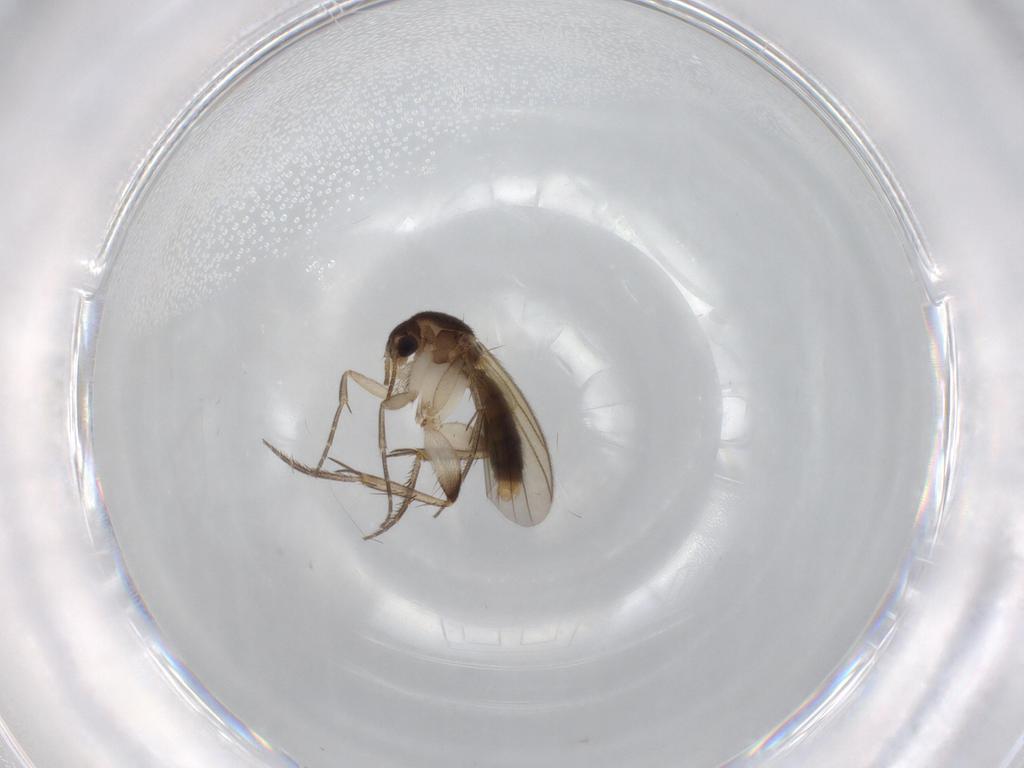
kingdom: Animalia
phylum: Arthropoda
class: Insecta
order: Diptera
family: Mycetophilidae
